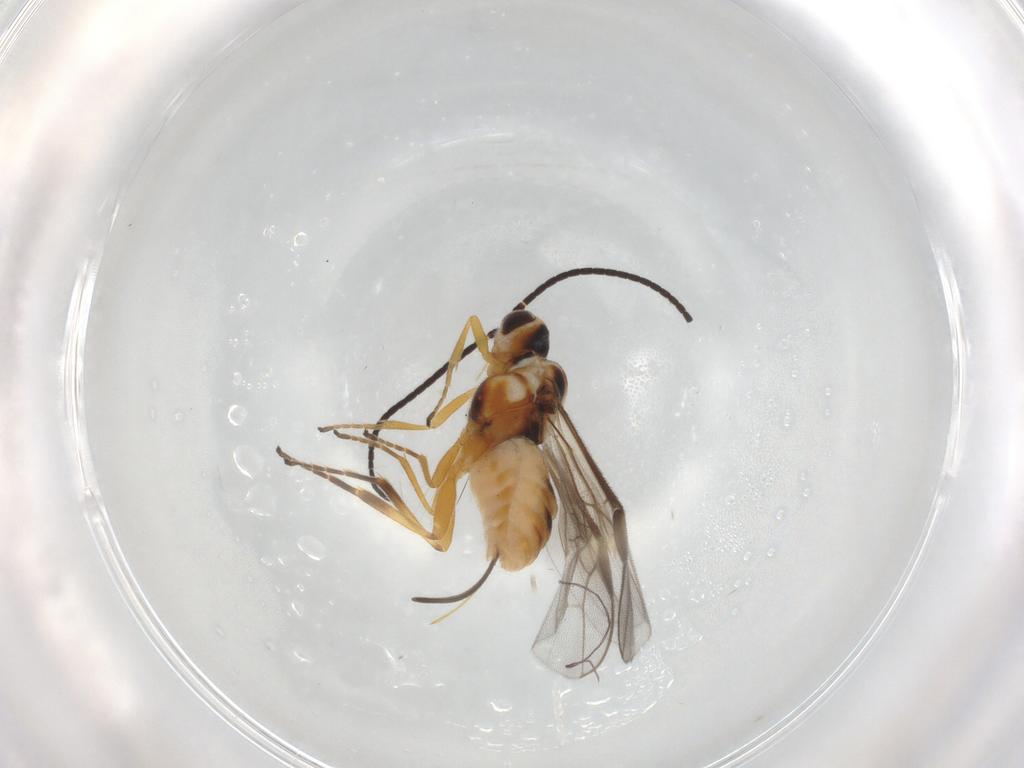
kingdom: Animalia
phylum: Arthropoda
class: Insecta
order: Hymenoptera
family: Braconidae
